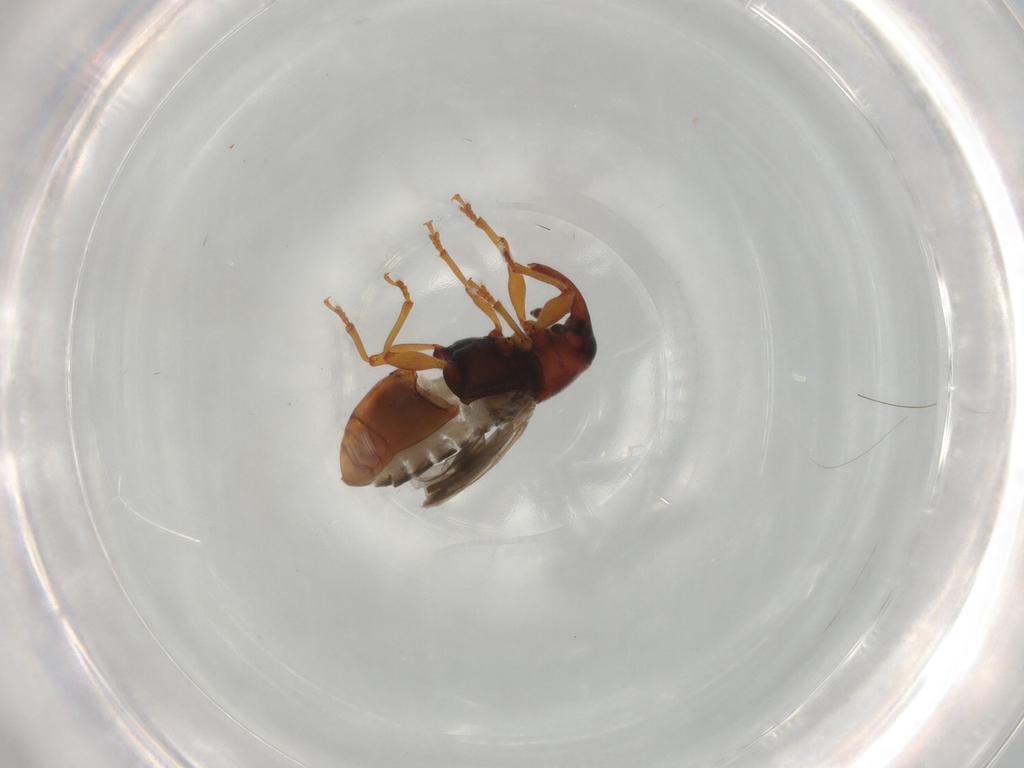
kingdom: Animalia
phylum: Arthropoda
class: Insecta
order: Coleoptera
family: Curculionidae
